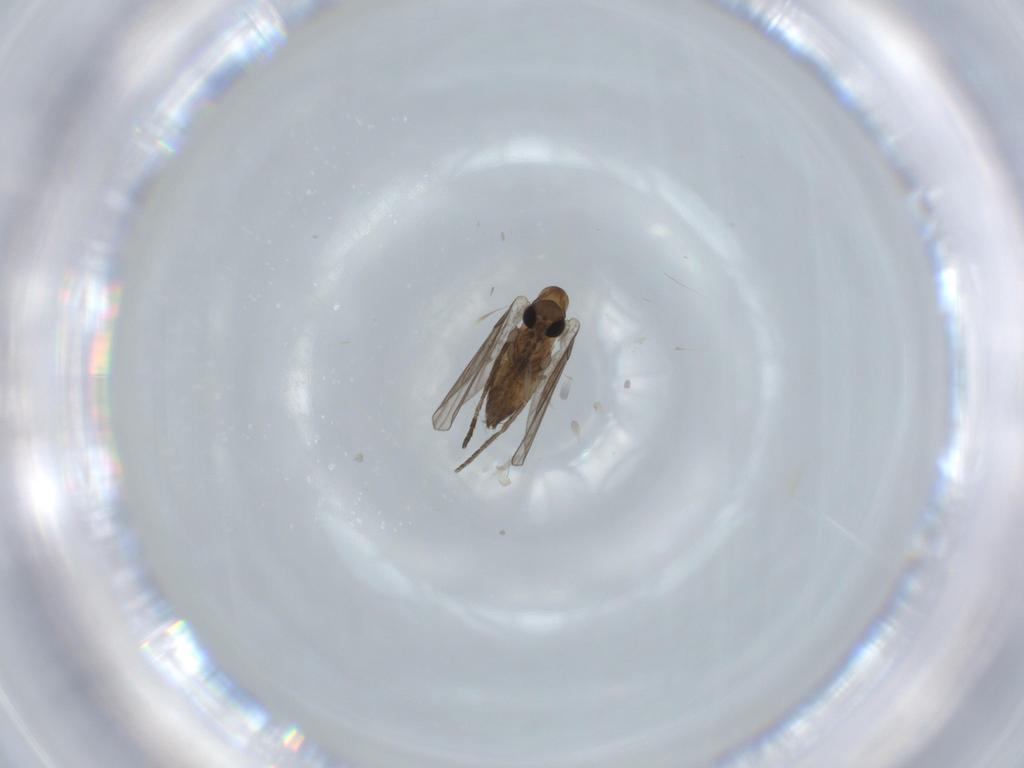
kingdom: Animalia
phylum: Arthropoda
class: Insecta
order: Diptera
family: Psychodidae
